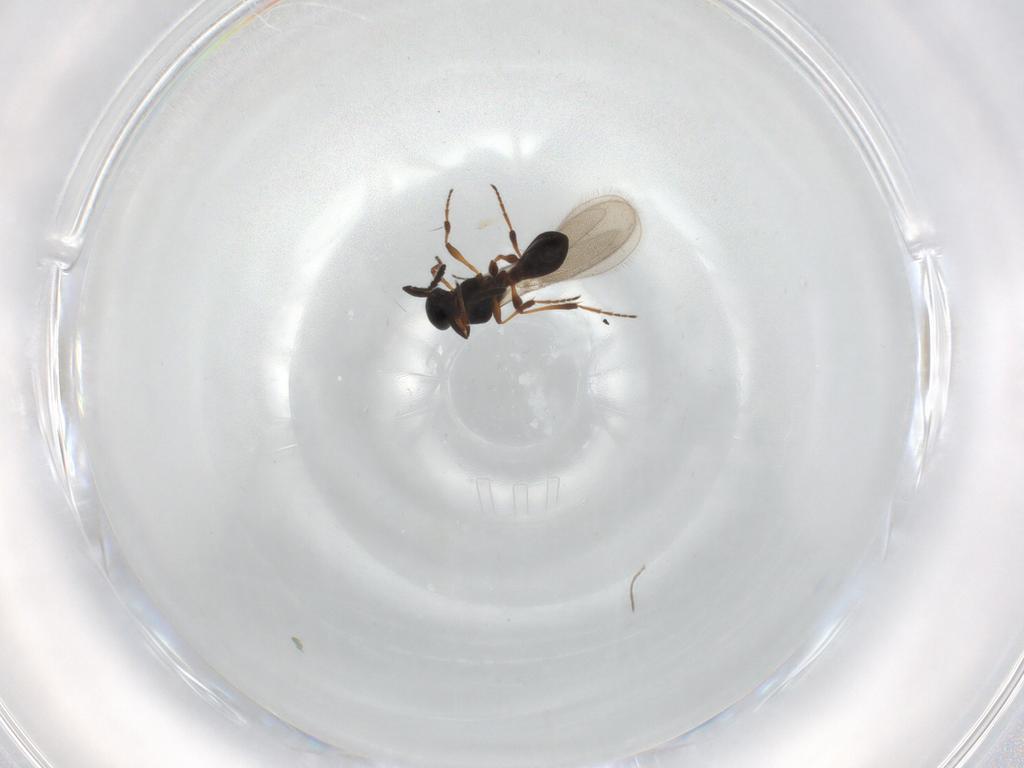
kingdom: Animalia
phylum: Arthropoda
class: Insecta
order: Hymenoptera
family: Platygastridae
